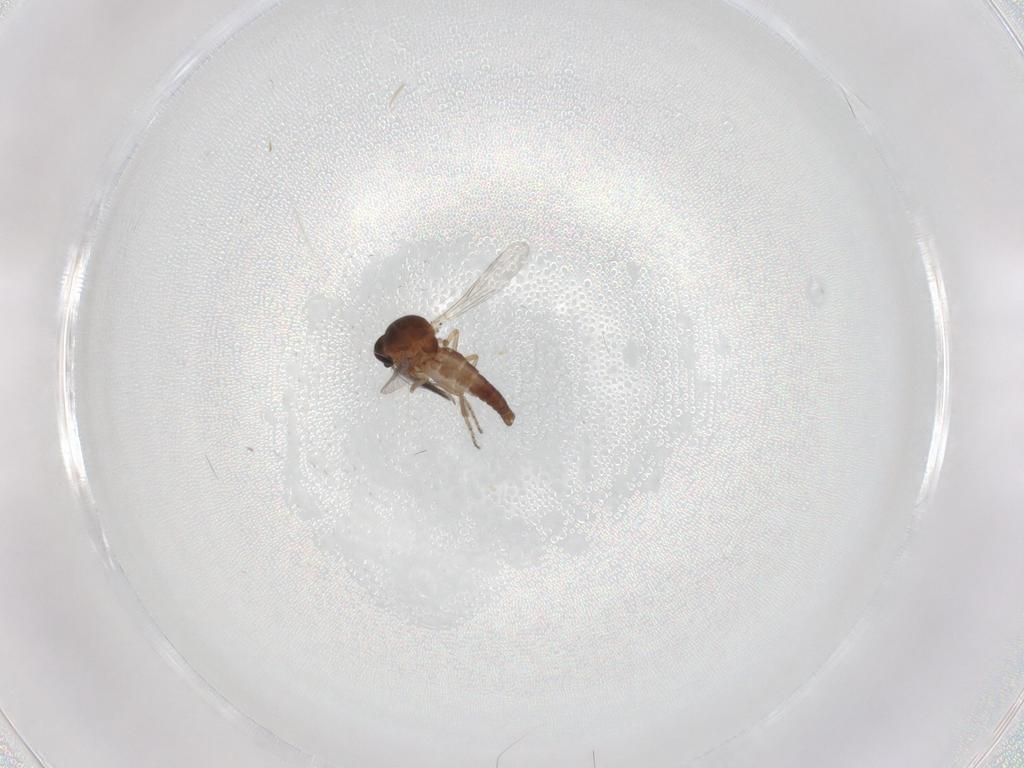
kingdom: Animalia
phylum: Arthropoda
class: Insecta
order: Diptera
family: Ceratopogonidae
